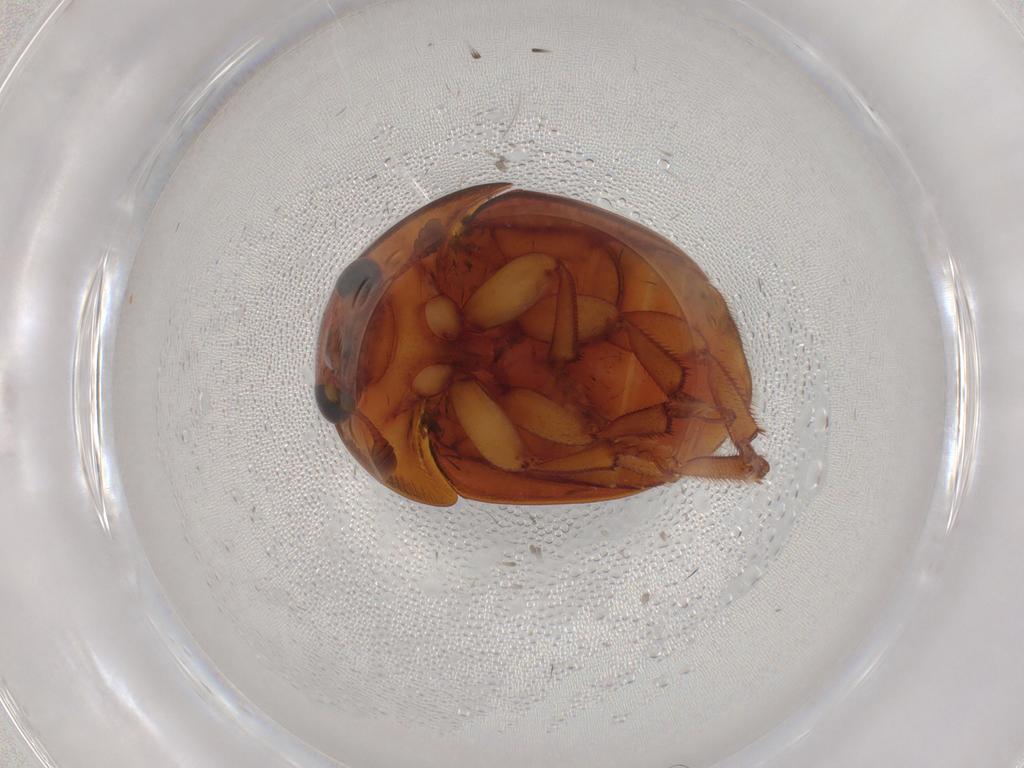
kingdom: Animalia
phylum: Arthropoda
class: Insecta
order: Coleoptera
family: Nitidulidae
